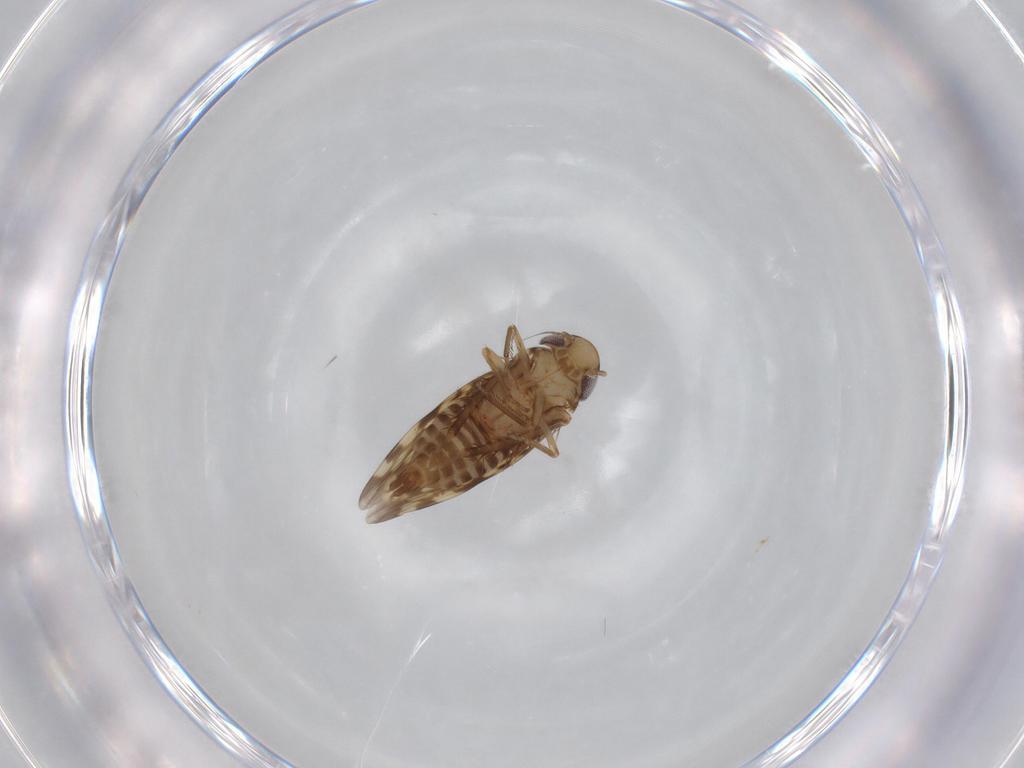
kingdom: Animalia
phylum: Arthropoda
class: Insecta
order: Hemiptera
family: Cicadellidae
